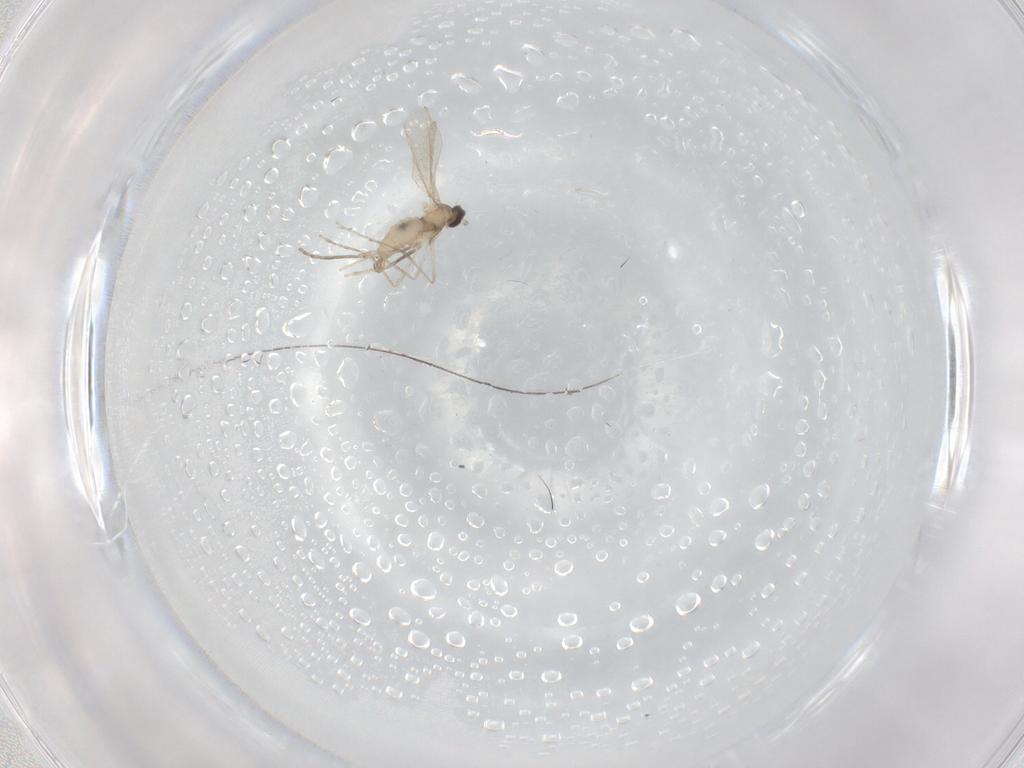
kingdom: Animalia
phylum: Arthropoda
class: Insecta
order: Diptera
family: Cecidomyiidae
